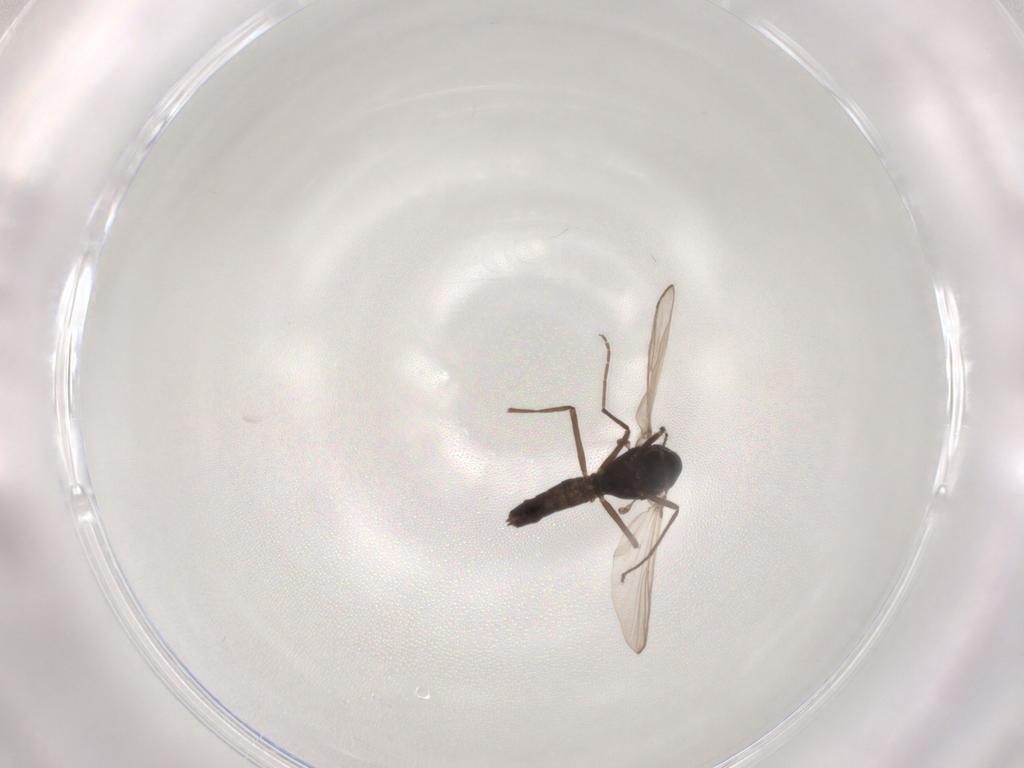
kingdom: Animalia
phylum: Arthropoda
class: Insecta
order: Diptera
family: Chironomidae
